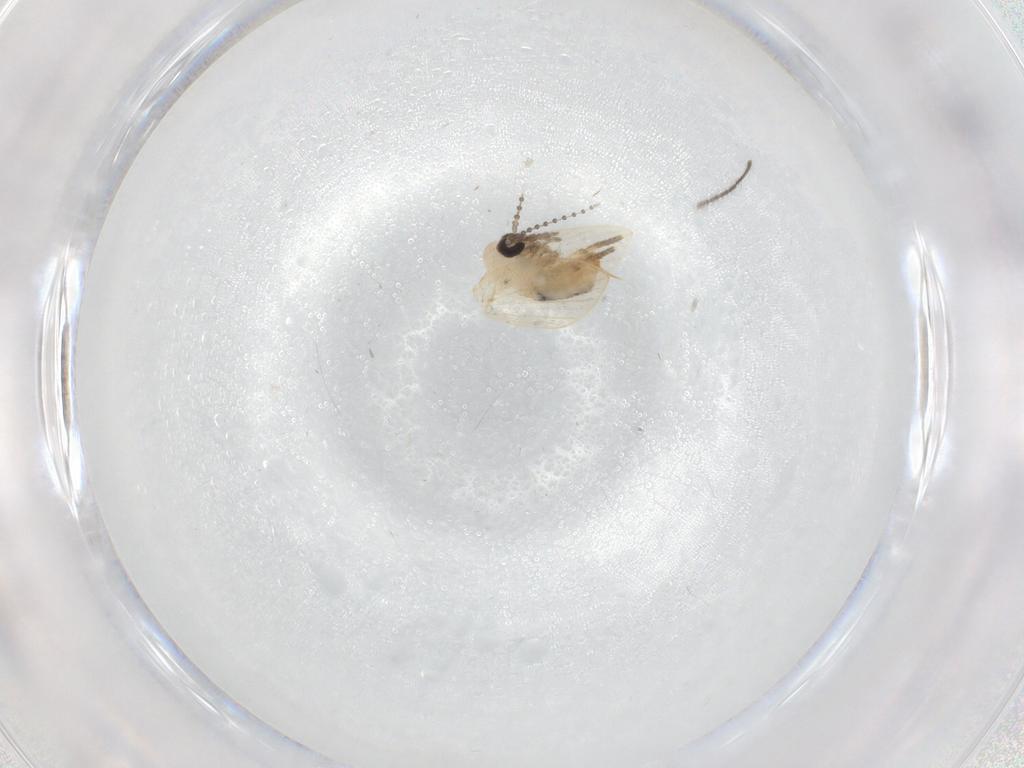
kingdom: Animalia
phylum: Arthropoda
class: Insecta
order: Diptera
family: Psychodidae
